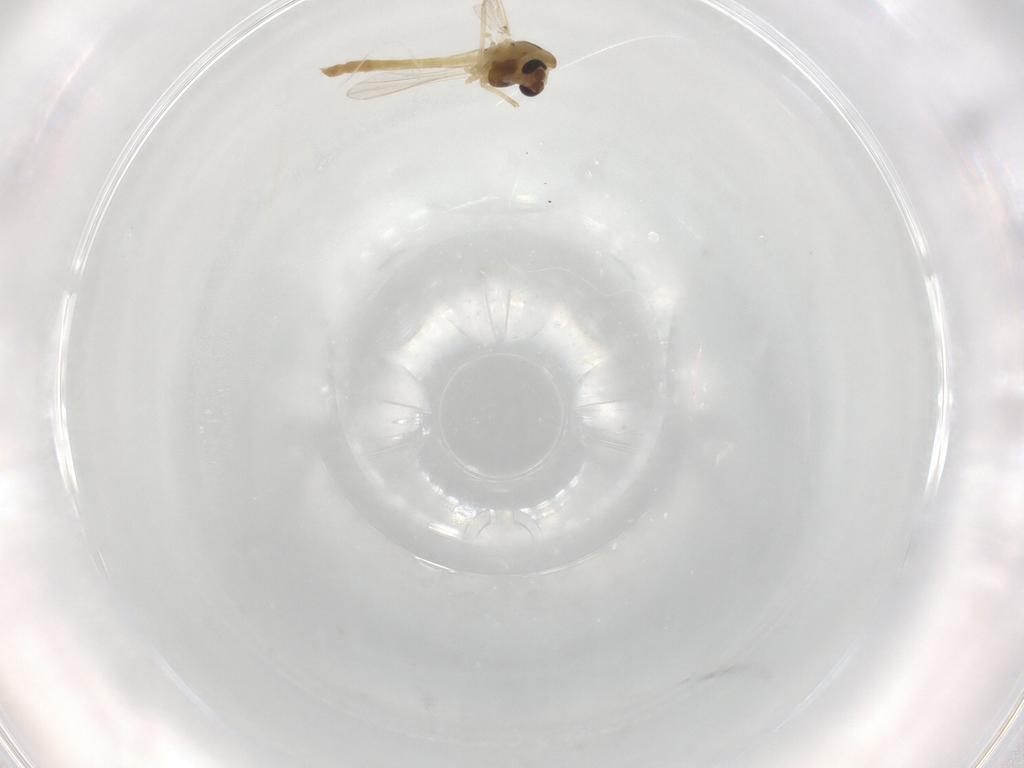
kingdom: Animalia
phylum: Arthropoda
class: Insecta
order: Diptera
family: Chironomidae
